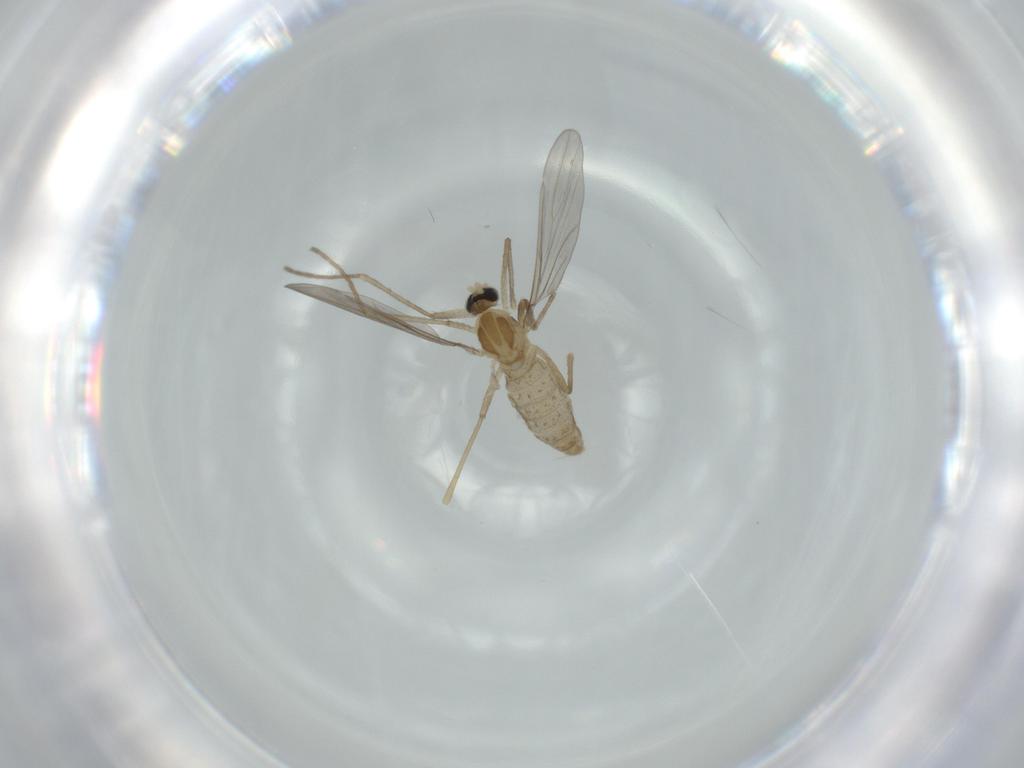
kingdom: Animalia
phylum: Arthropoda
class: Insecta
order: Diptera
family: Cecidomyiidae
